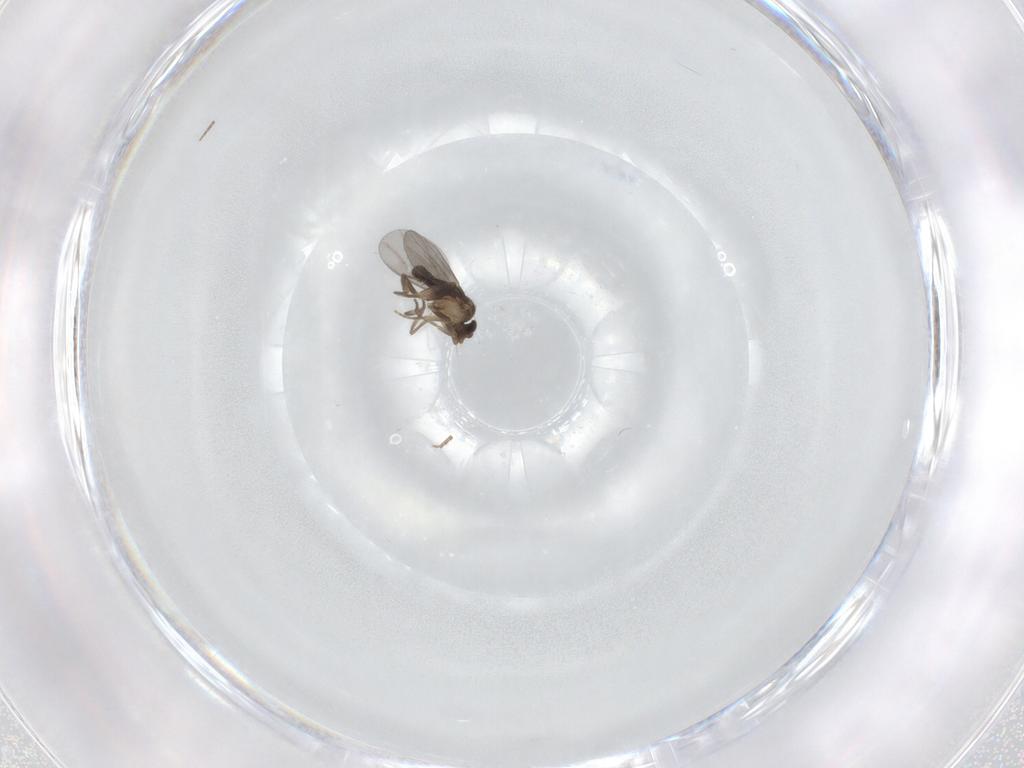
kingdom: Animalia
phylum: Arthropoda
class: Insecta
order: Diptera
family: Ceratopogonidae
